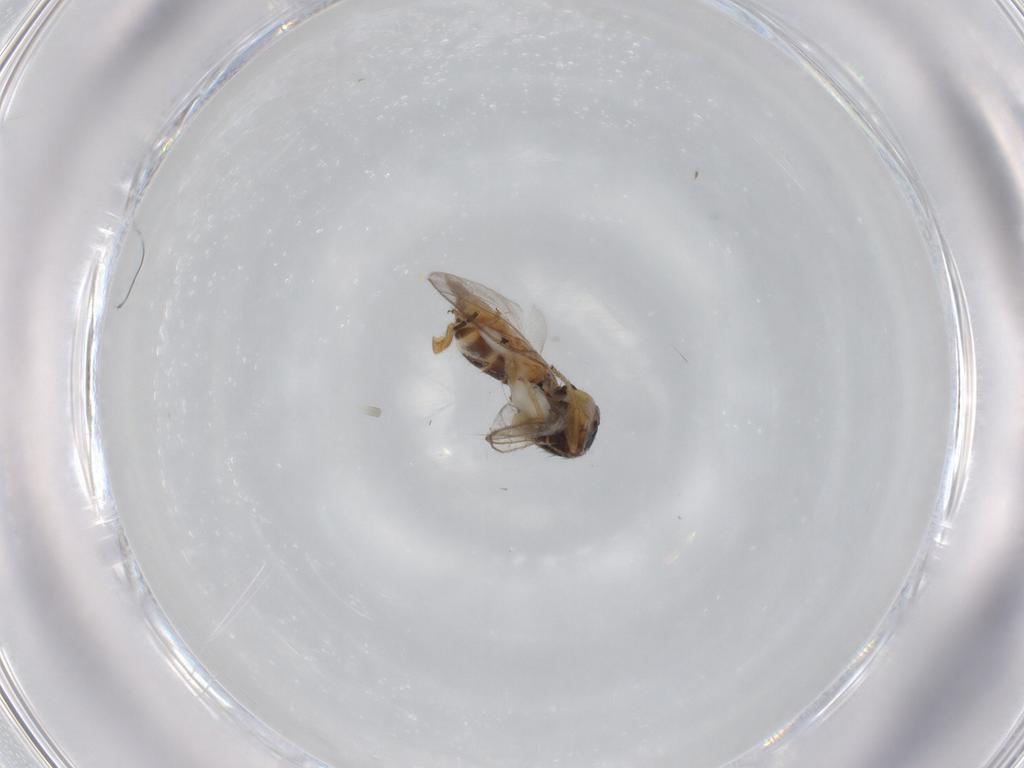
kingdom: Animalia
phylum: Arthropoda
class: Insecta
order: Diptera
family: Chloropidae
